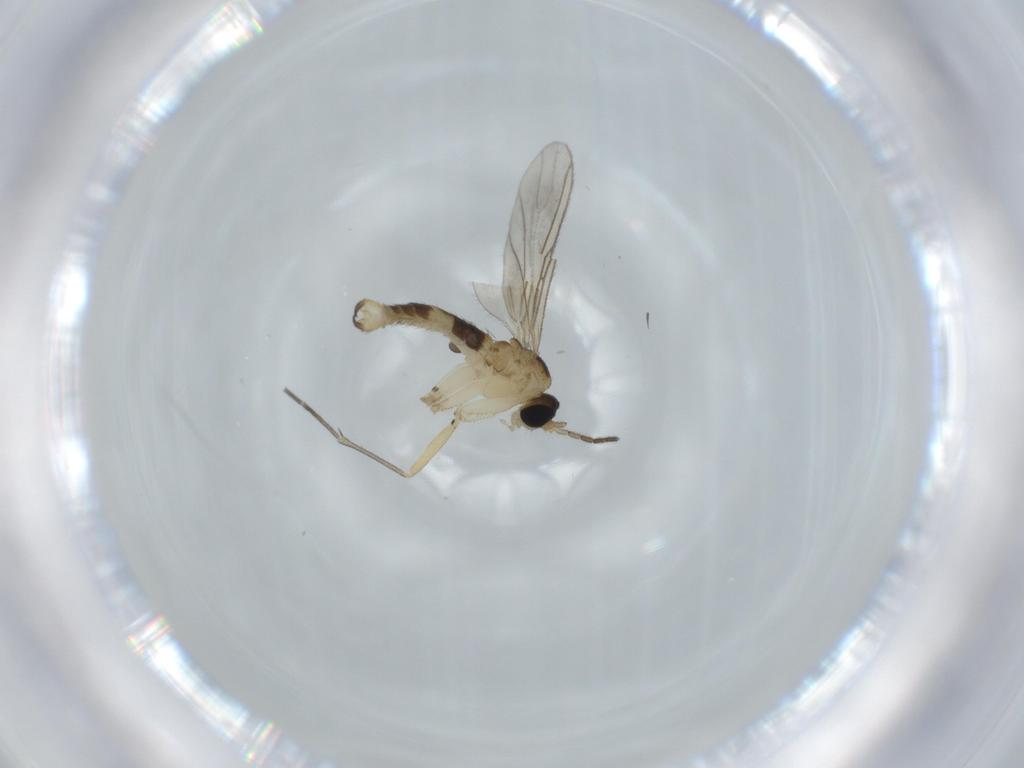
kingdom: Animalia
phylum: Arthropoda
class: Insecta
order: Diptera
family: Sciaridae
